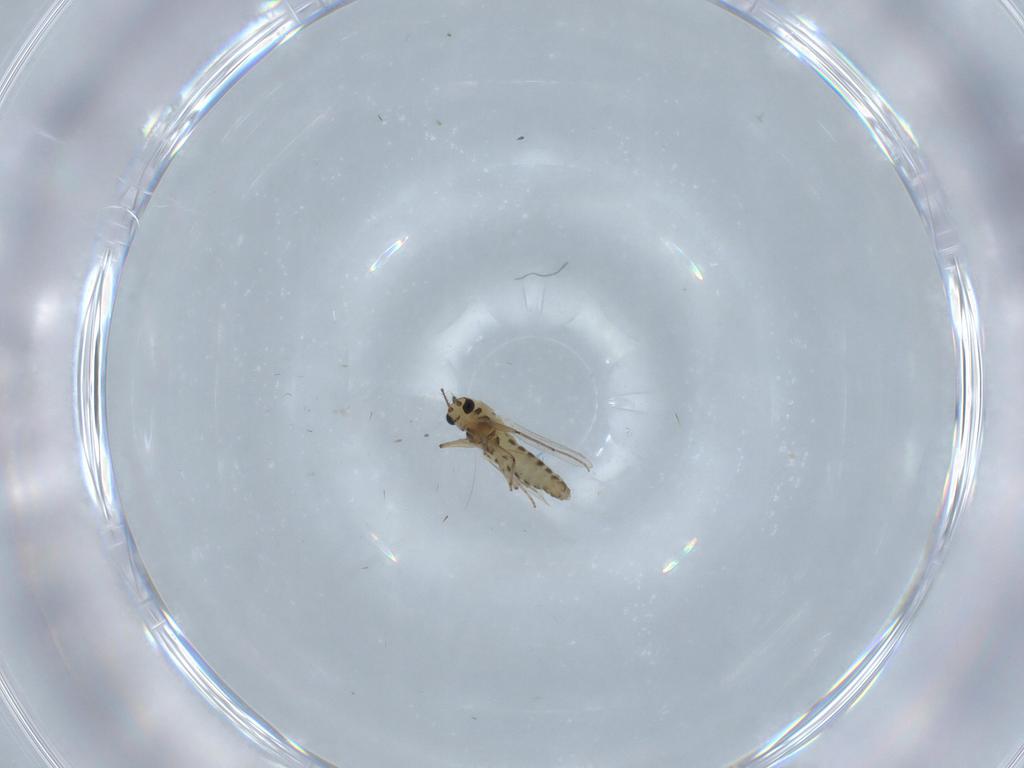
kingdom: Animalia
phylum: Arthropoda
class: Insecta
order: Diptera
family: Chironomidae
